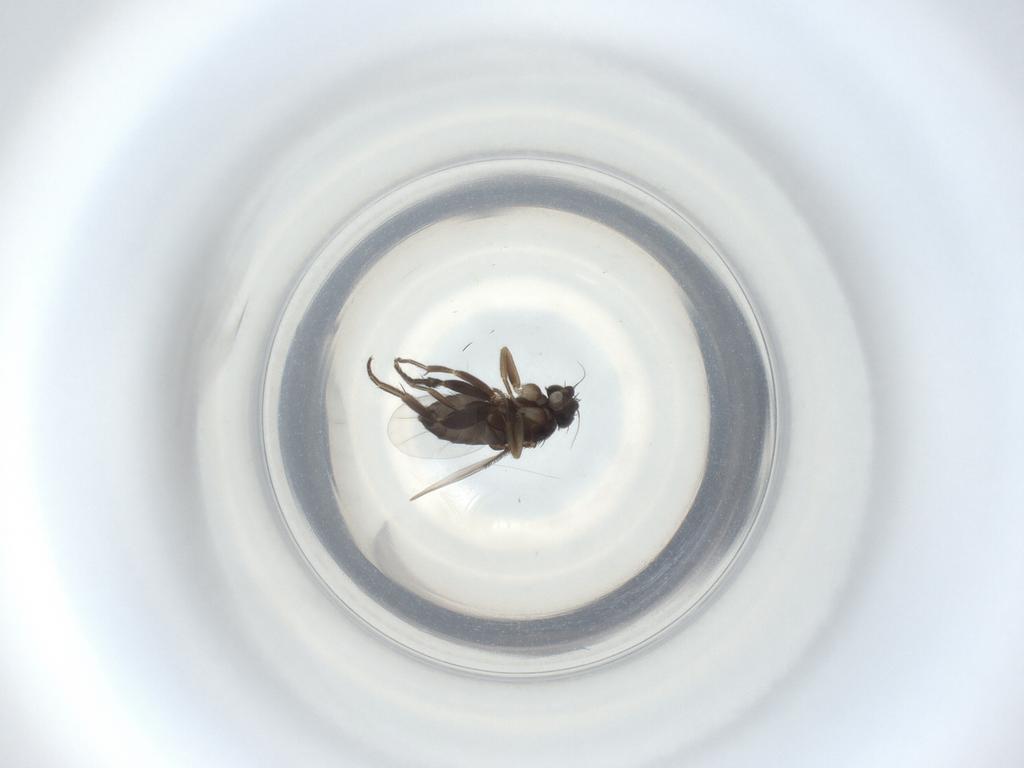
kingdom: Animalia
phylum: Arthropoda
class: Insecta
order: Diptera
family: Phoridae
